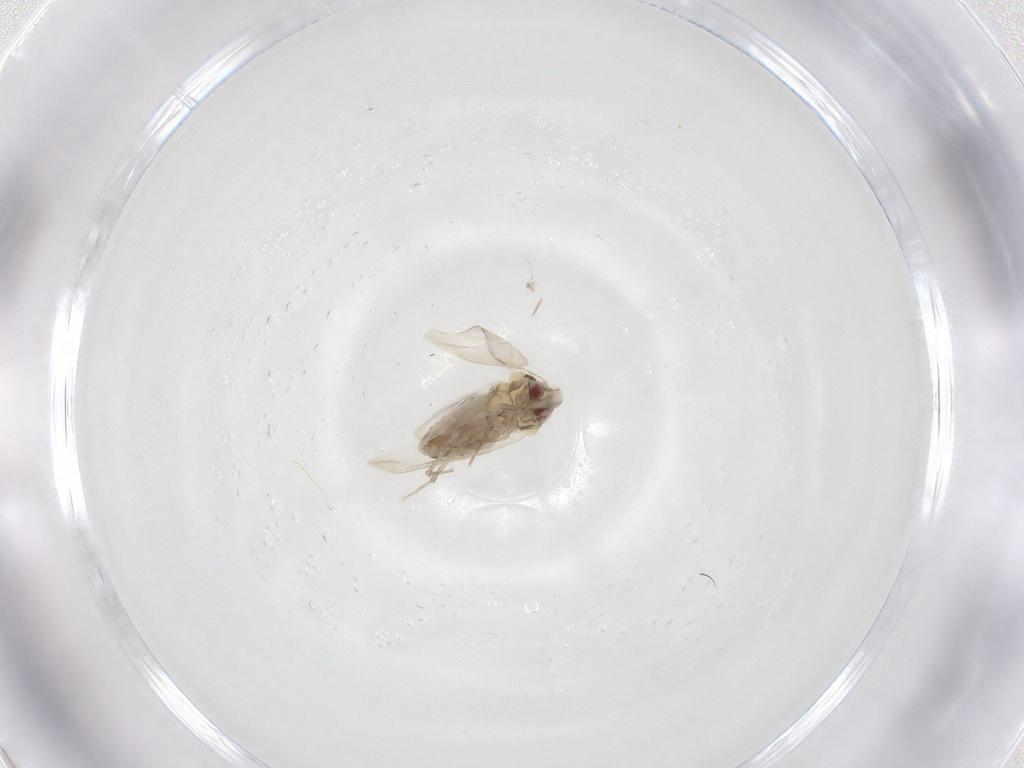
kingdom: Animalia
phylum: Arthropoda
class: Insecta
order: Hemiptera
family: Aleyrodidae
